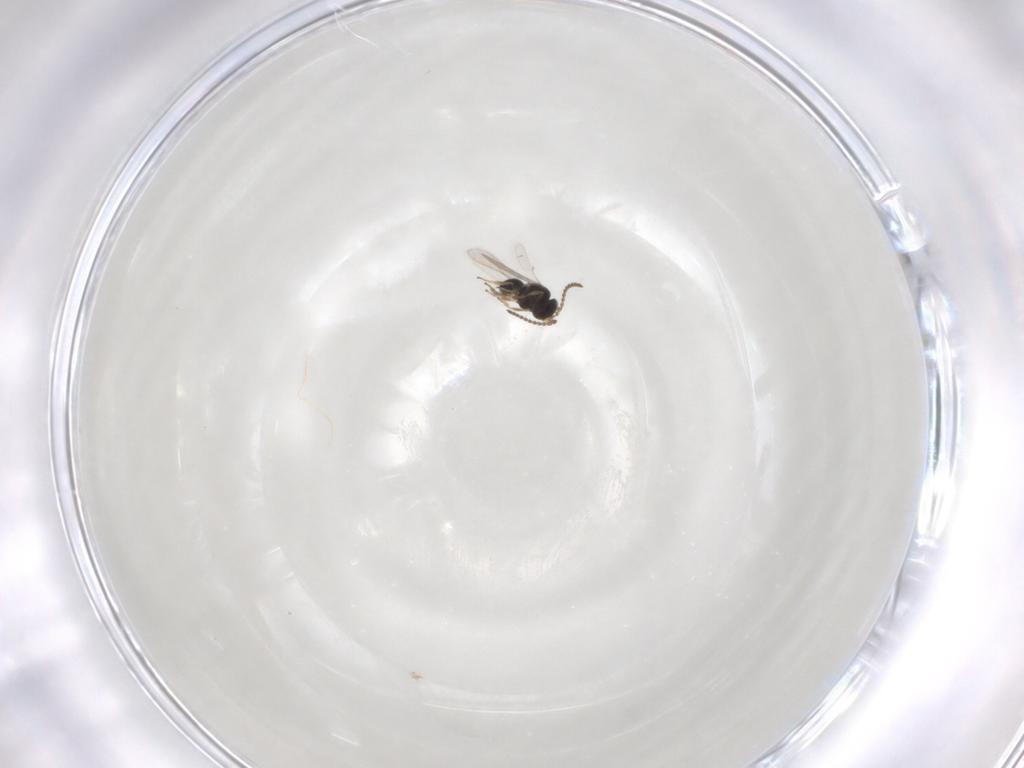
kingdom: Animalia
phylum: Arthropoda
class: Insecta
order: Hymenoptera
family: Scelionidae
